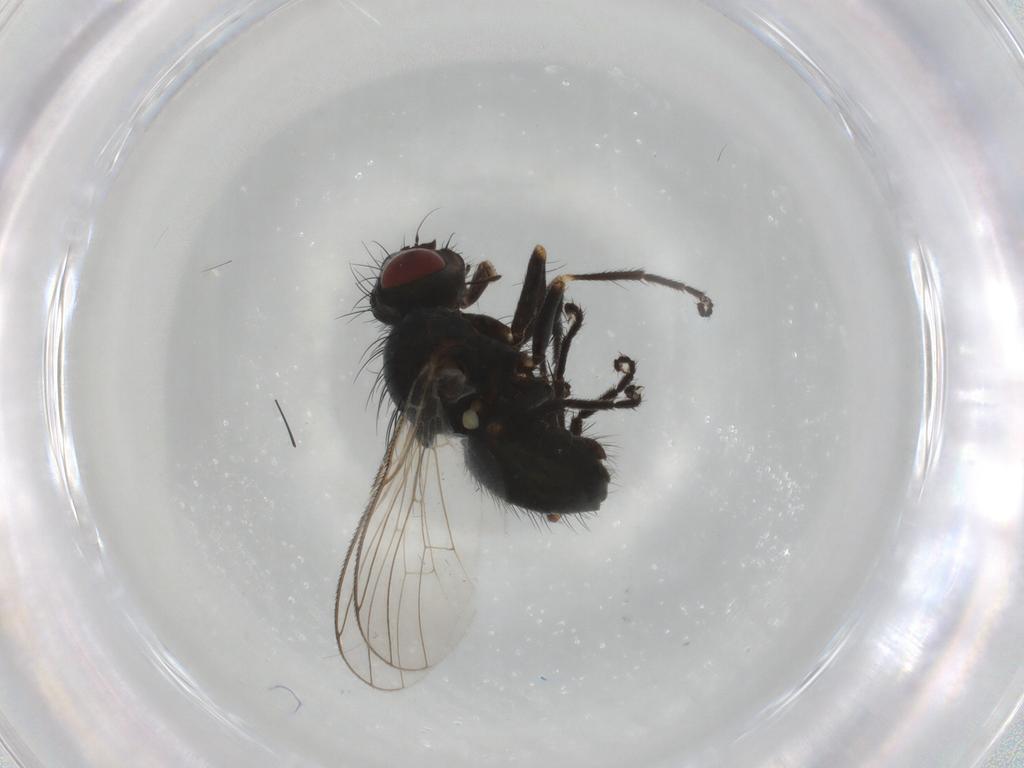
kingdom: Animalia
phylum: Arthropoda
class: Insecta
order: Diptera
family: Muscidae
